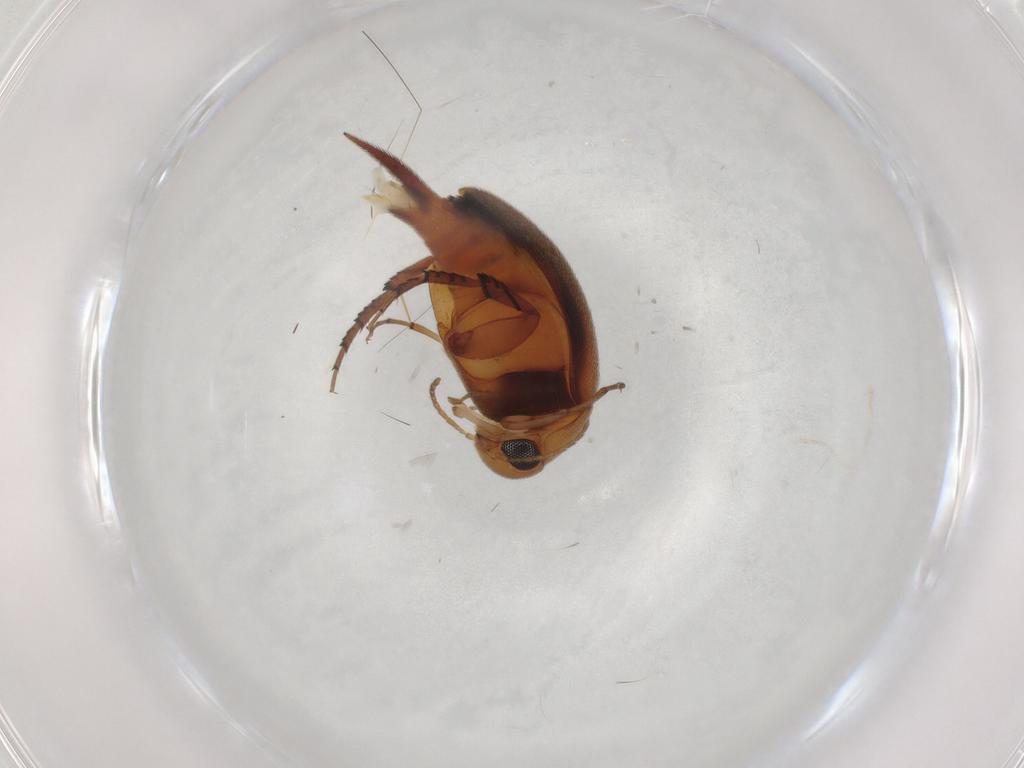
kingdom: Animalia
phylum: Arthropoda
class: Insecta
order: Coleoptera
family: Mordellidae
